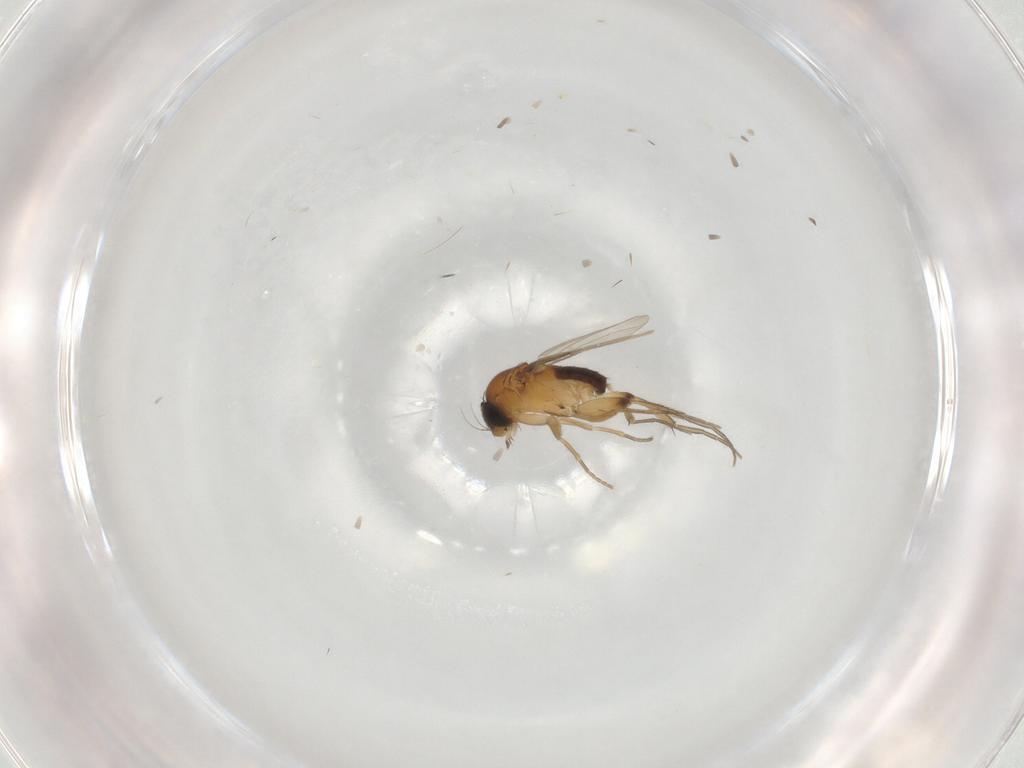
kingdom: Animalia
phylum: Arthropoda
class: Insecta
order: Diptera
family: Phoridae
